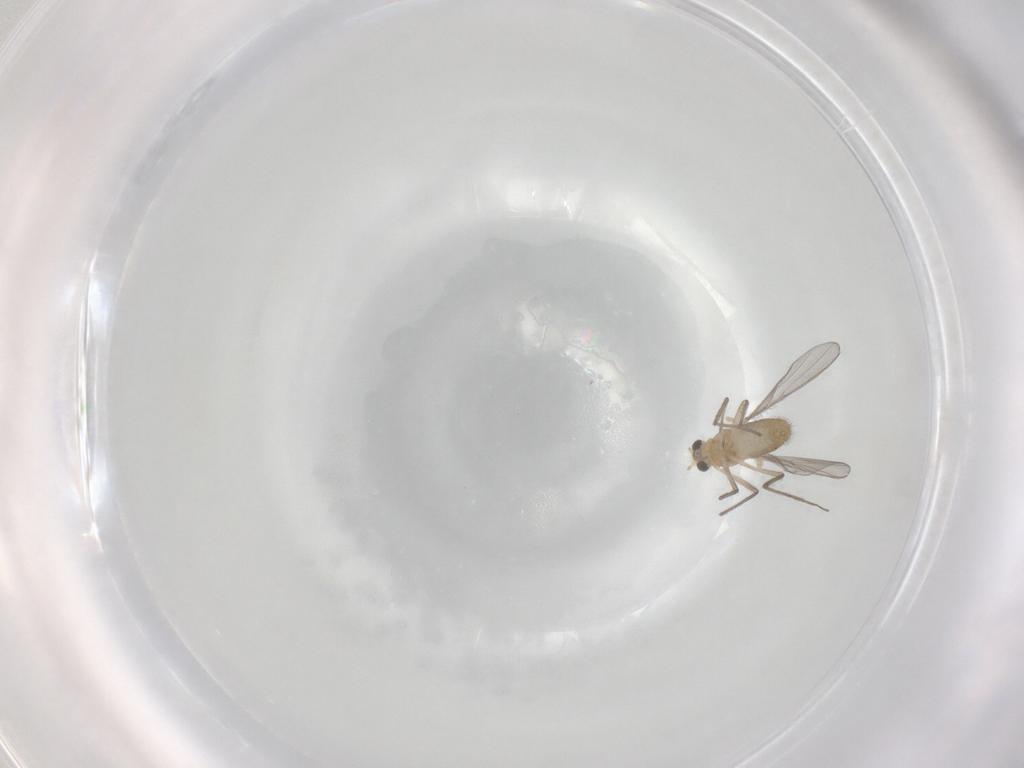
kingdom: Animalia
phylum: Arthropoda
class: Insecta
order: Diptera
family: Chironomidae
